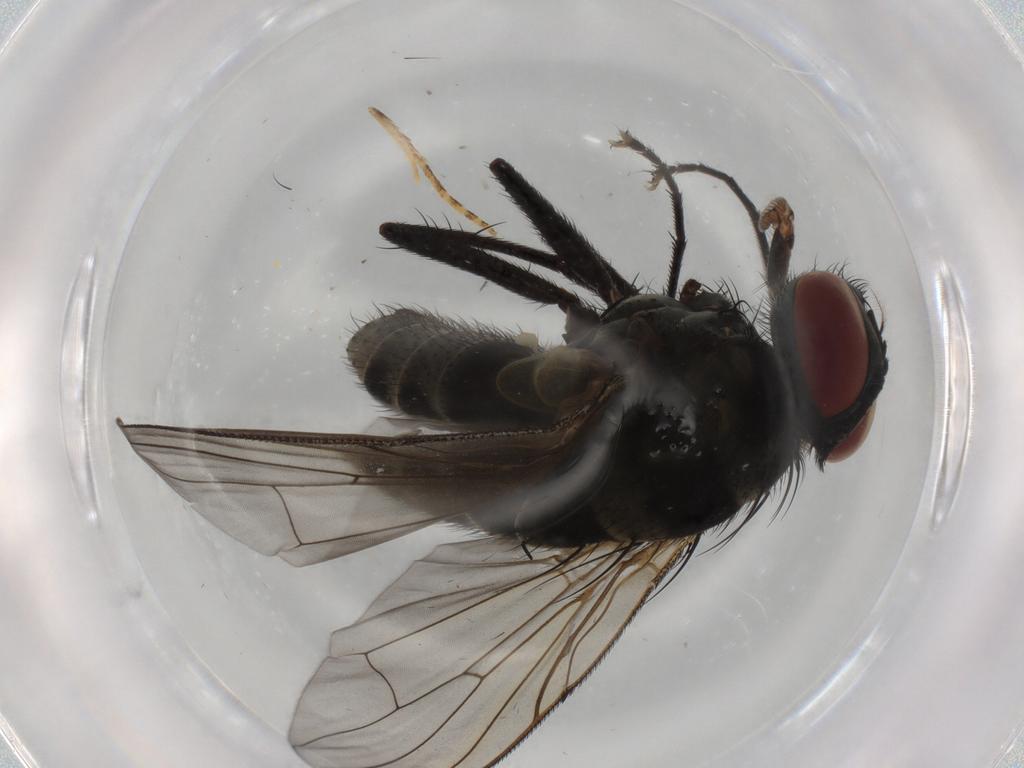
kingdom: Animalia
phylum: Arthropoda
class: Insecta
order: Diptera
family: Muscidae
